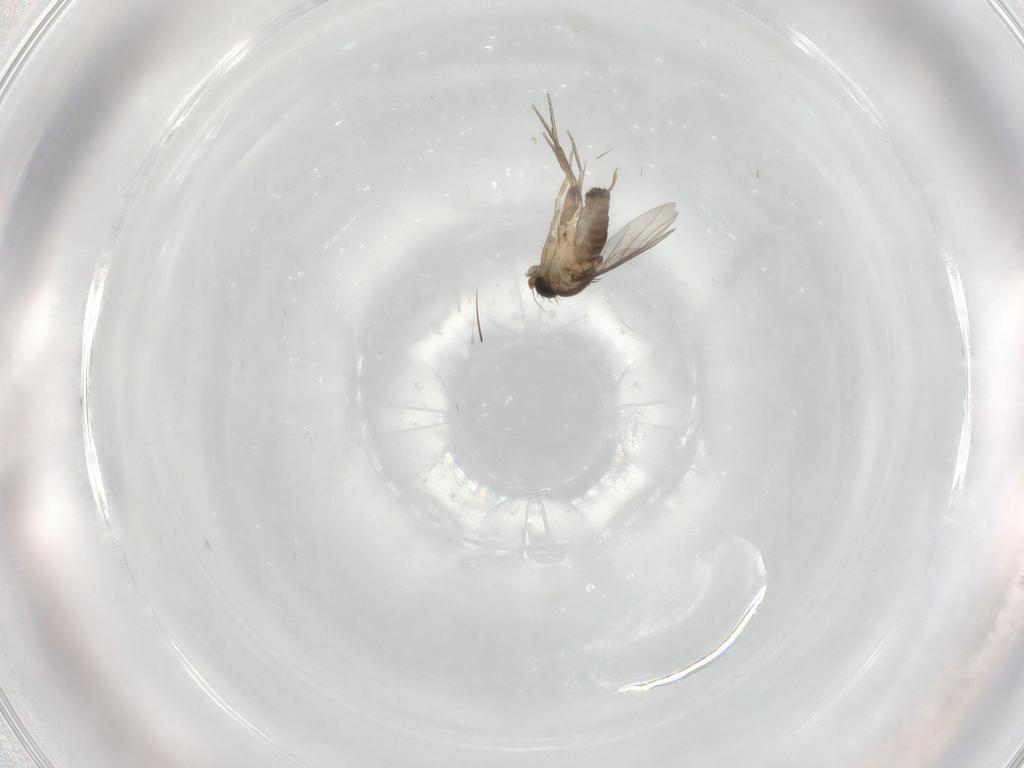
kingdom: Animalia
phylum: Arthropoda
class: Insecta
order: Diptera
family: Phoridae
